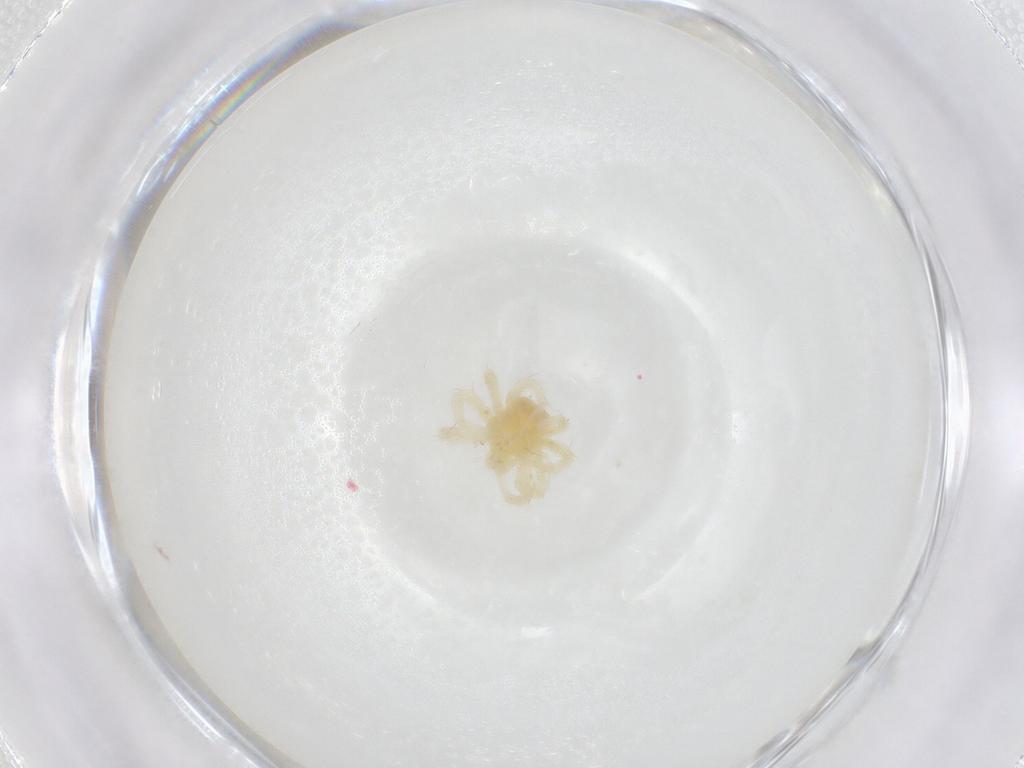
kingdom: Animalia
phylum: Arthropoda
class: Arachnida
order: Trombidiformes
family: Anystidae
